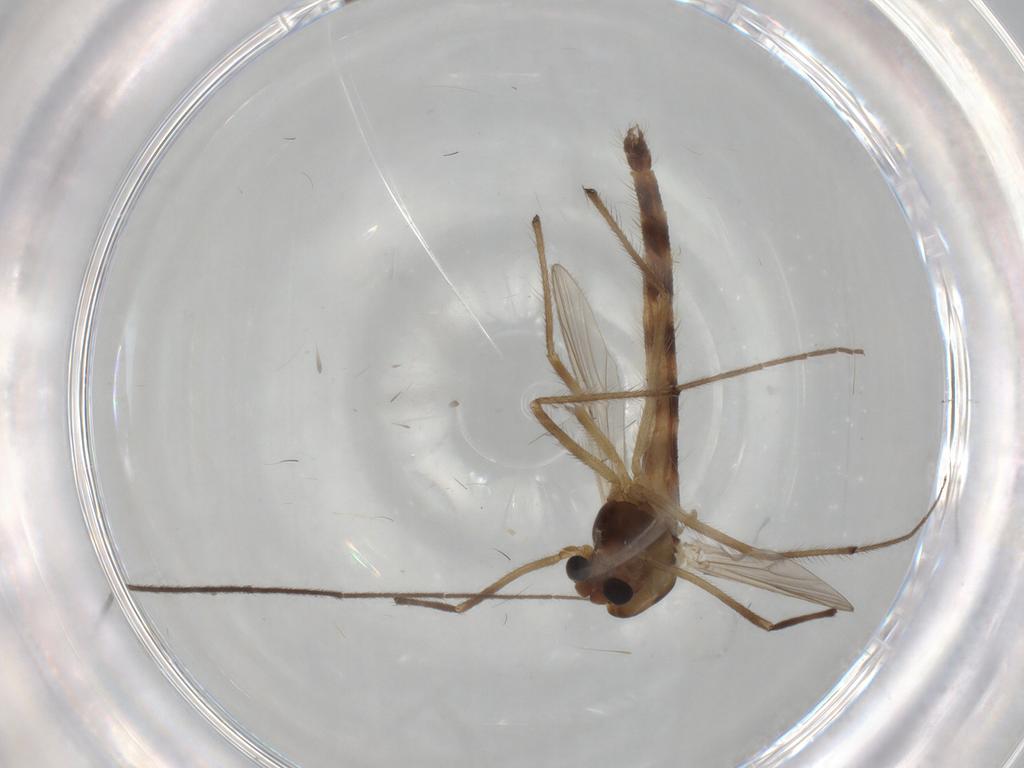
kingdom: Animalia
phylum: Arthropoda
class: Insecta
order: Diptera
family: Chironomidae
